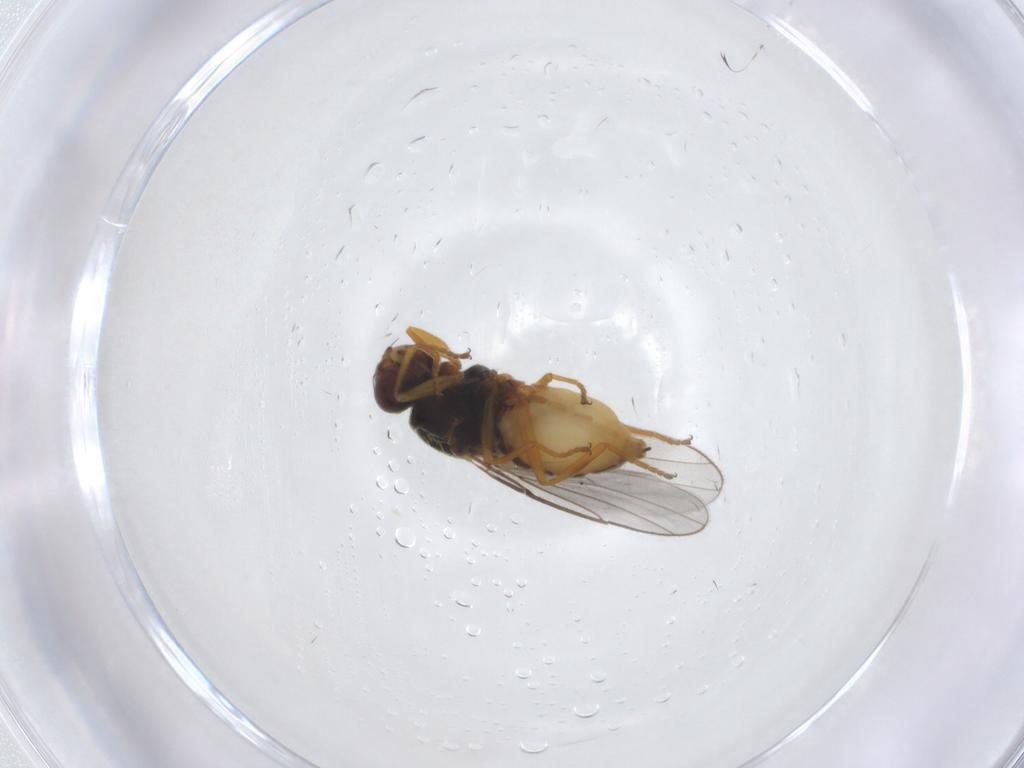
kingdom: Animalia
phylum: Arthropoda
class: Insecta
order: Diptera
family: Chloropidae
